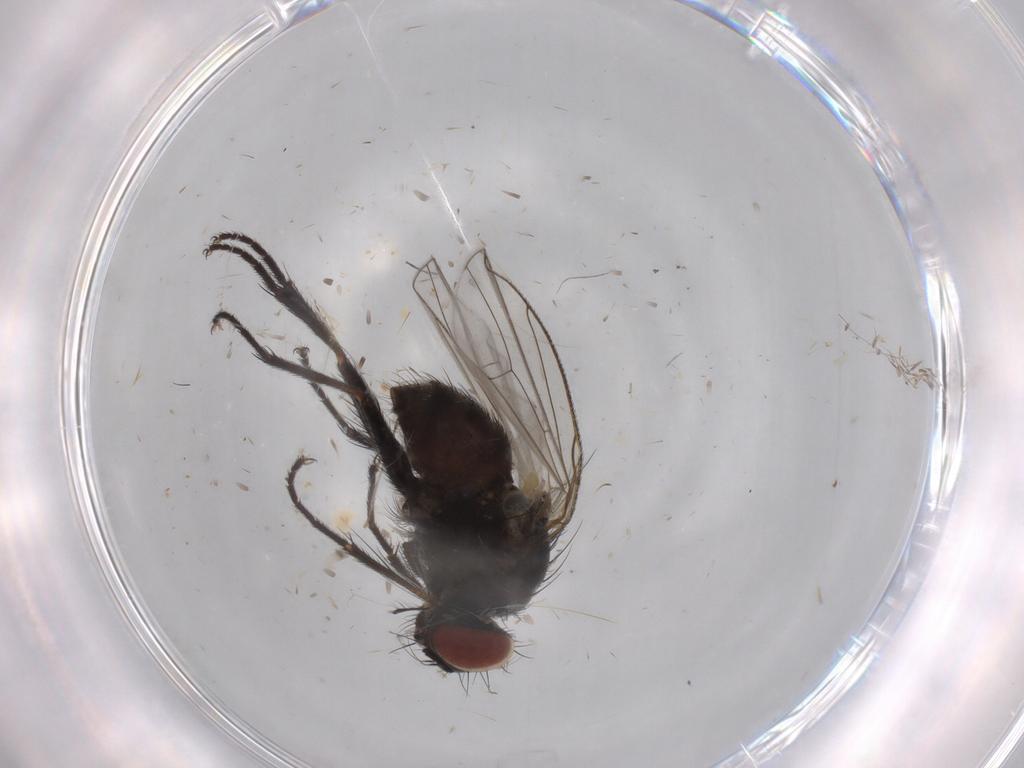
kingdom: Animalia
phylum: Arthropoda
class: Insecta
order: Diptera
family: Muscidae
